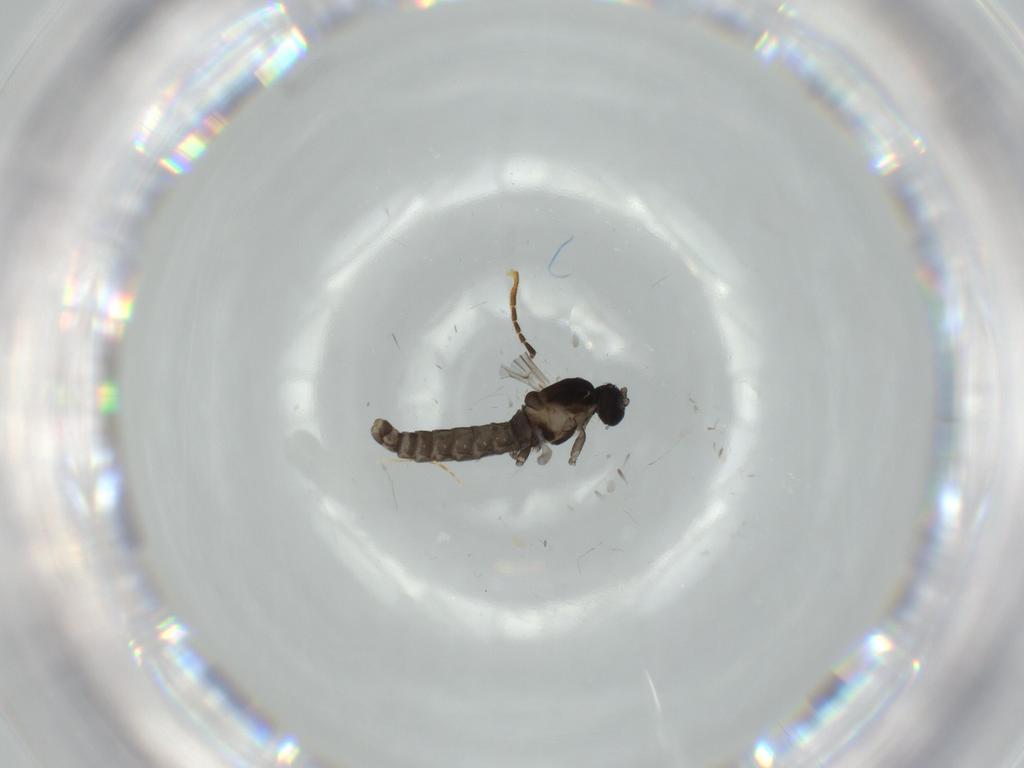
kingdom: Animalia
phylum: Arthropoda
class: Insecta
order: Diptera
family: Cecidomyiidae
